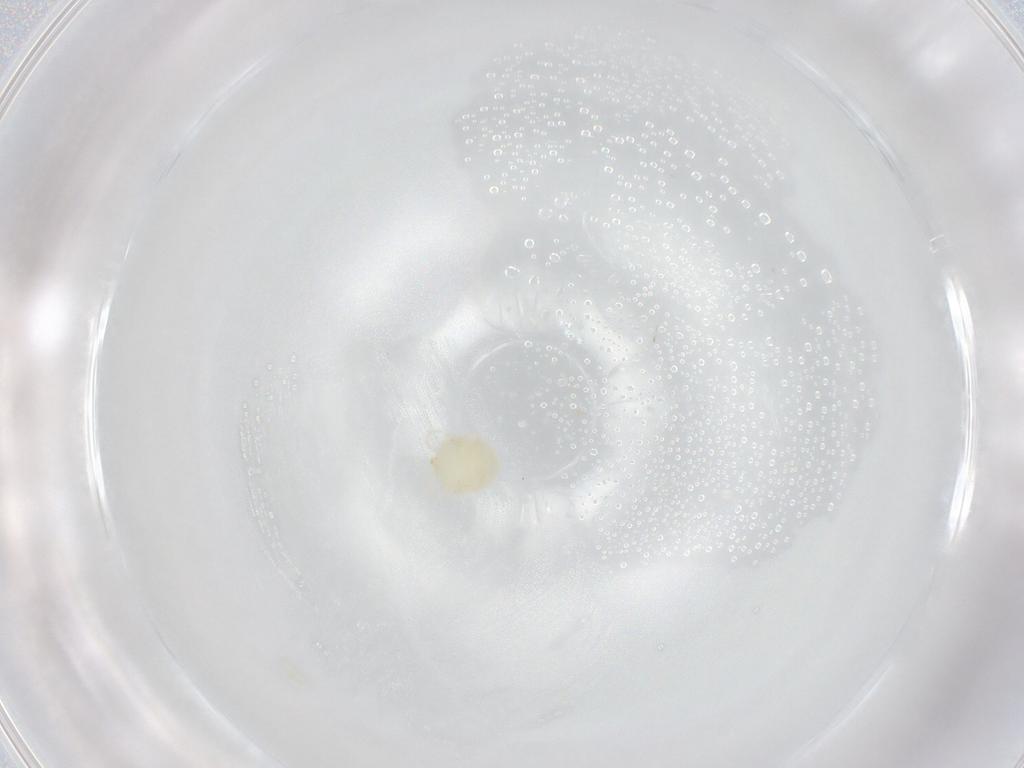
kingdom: Animalia
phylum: Arthropoda
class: Arachnida
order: Trombidiformes
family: Hydryphantidae
